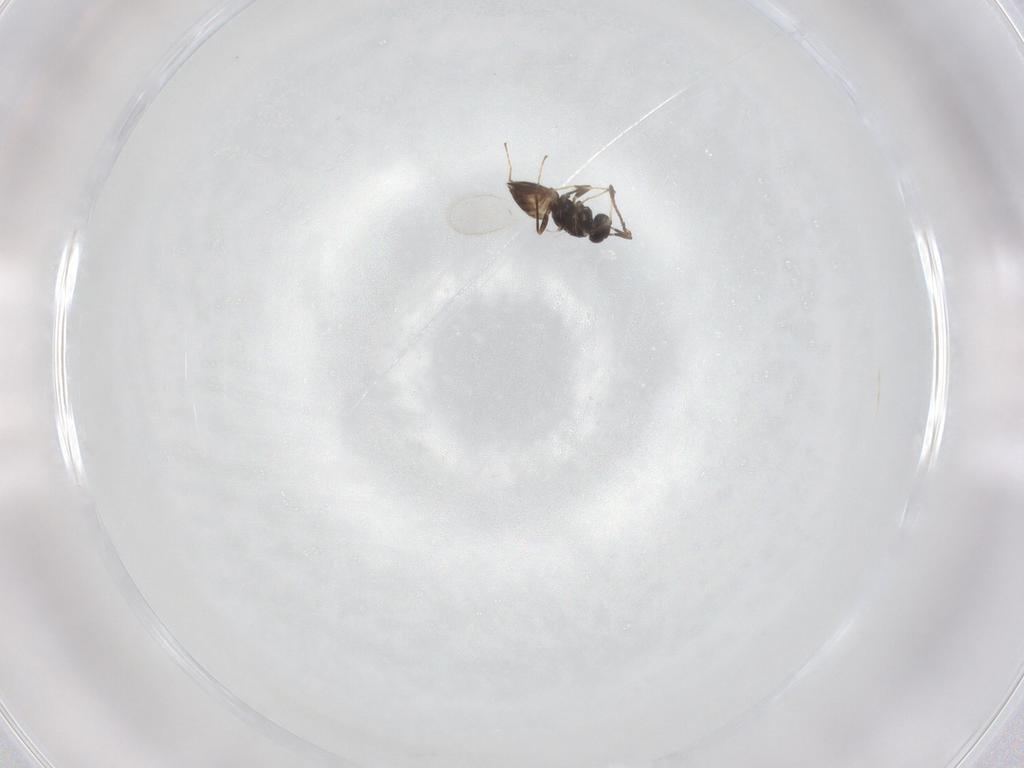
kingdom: Animalia
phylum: Arthropoda
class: Insecta
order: Hymenoptera
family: Mymaridae
